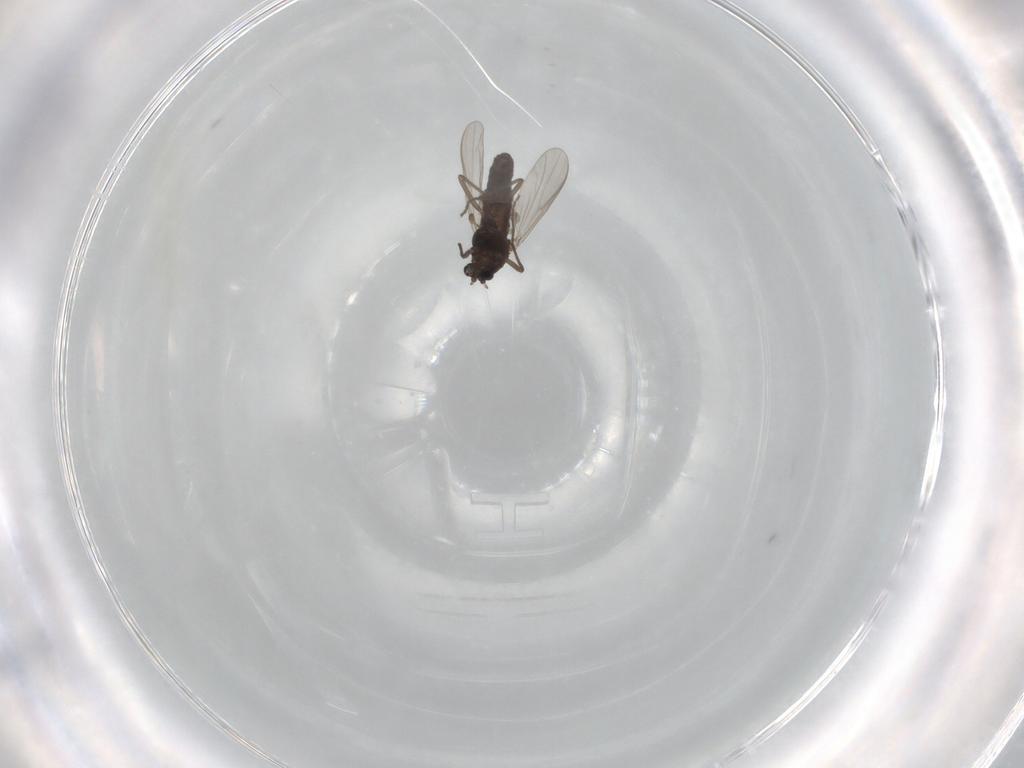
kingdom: Animalia
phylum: Arthropoda
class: Insecta
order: Diptera
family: Chironomidae
